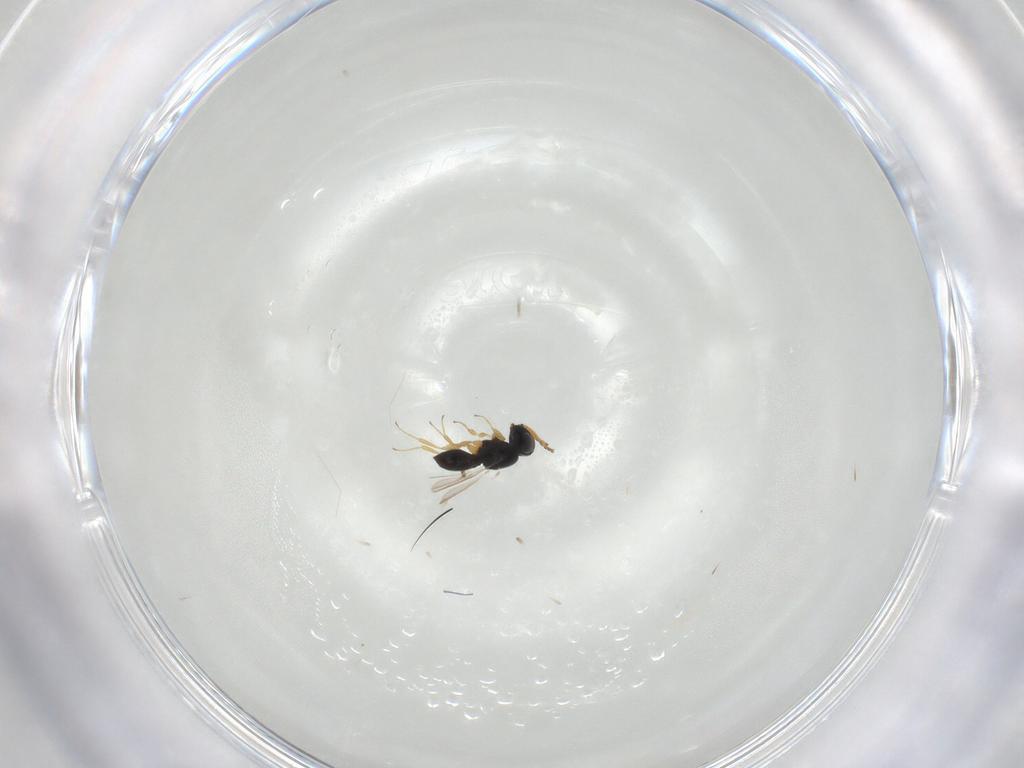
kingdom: Animalia
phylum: Arthropoda
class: Insecta
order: Hymenoptera
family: Scelionidae
